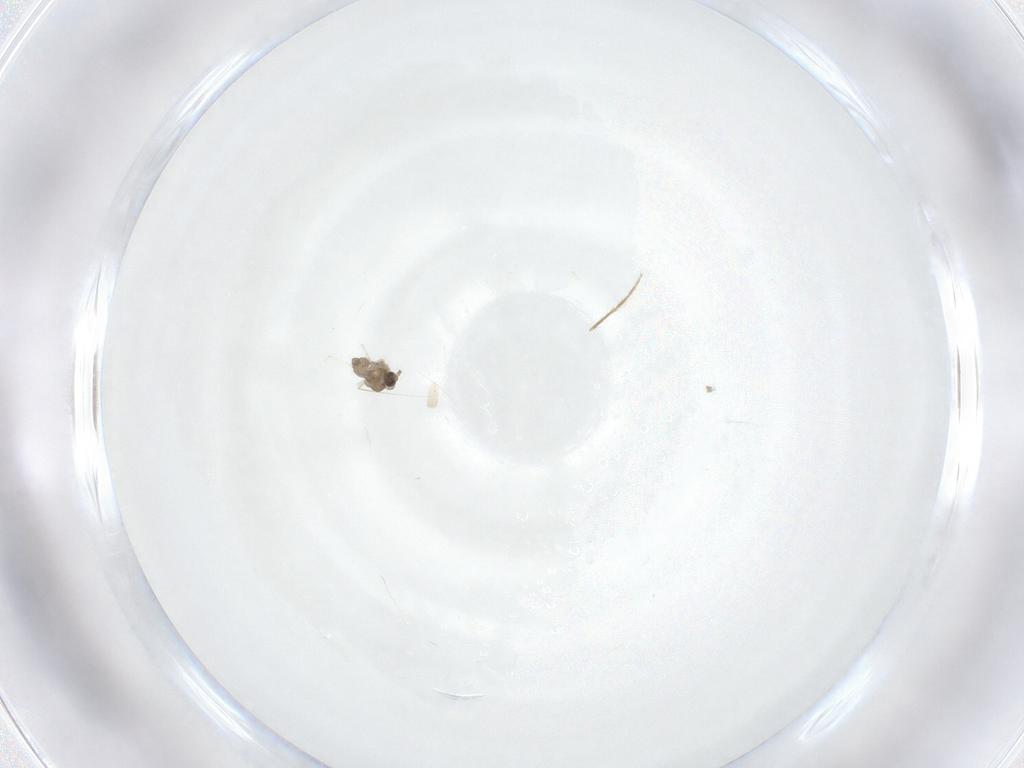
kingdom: Animalia
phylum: Arthropoda
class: Insecta
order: Diptera
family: Cecidomyiidae
